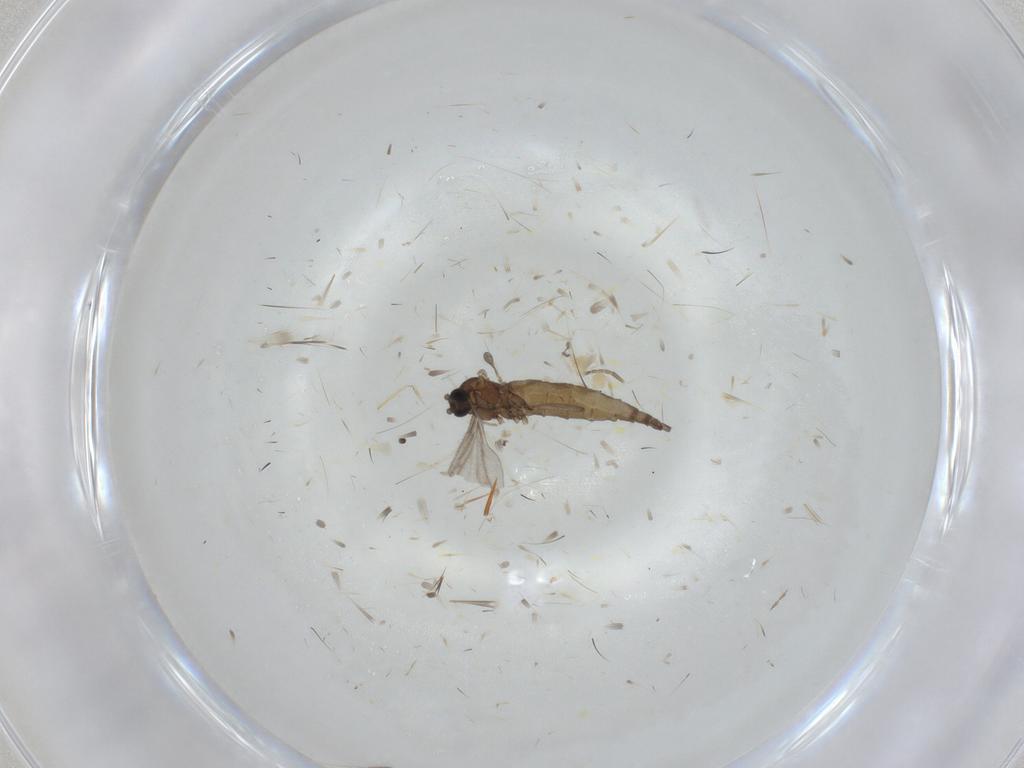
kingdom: Animalia
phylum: Arthropoda
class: Insecta
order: Diptera
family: Sciaridae
